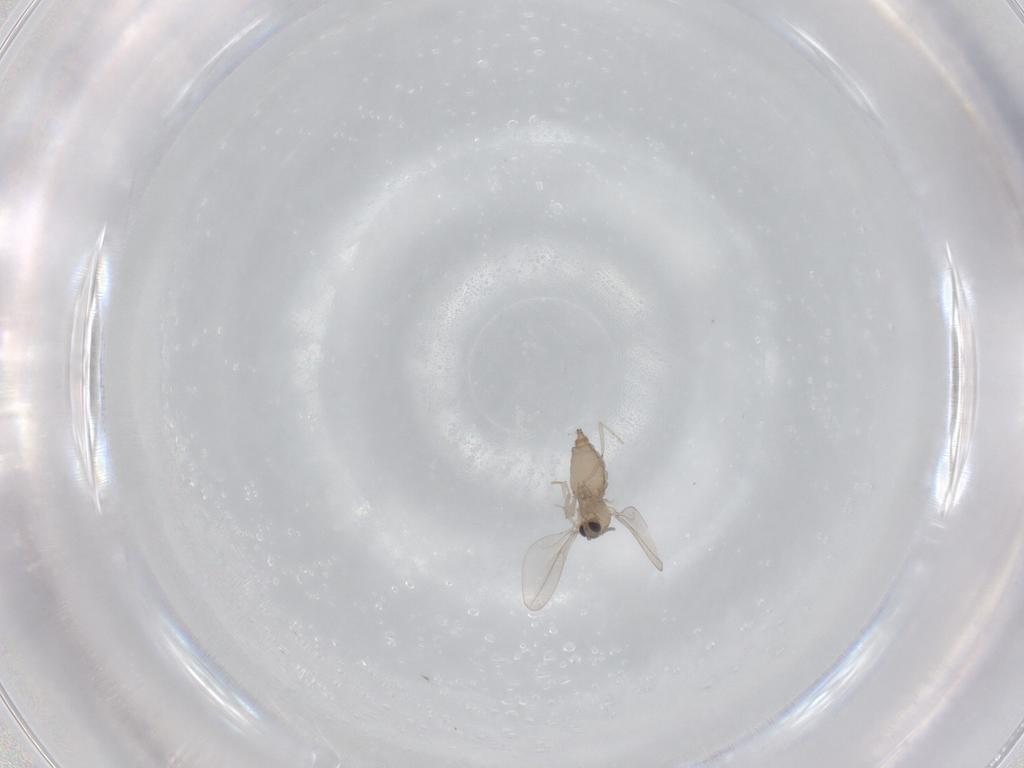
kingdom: Animalia
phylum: Arthropoda
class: Insecta
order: Diptera
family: Cecidomyiidae
